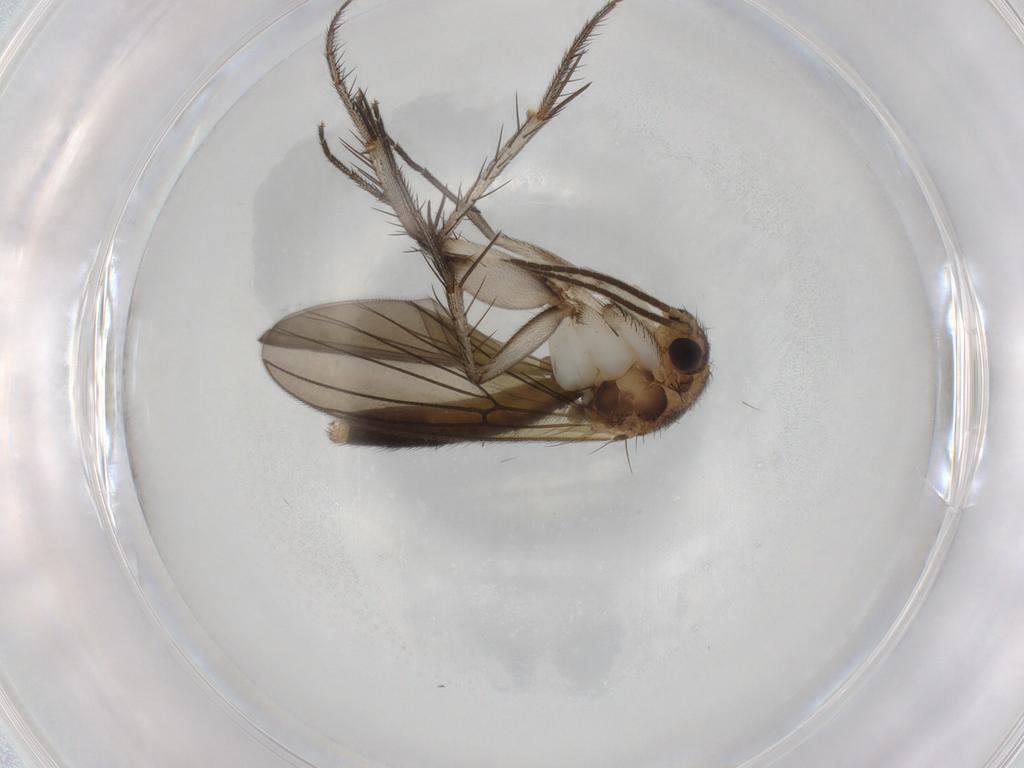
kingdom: Animalia
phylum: Arthropoda
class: Insecta
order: Diptera
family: Mycetophilidae
